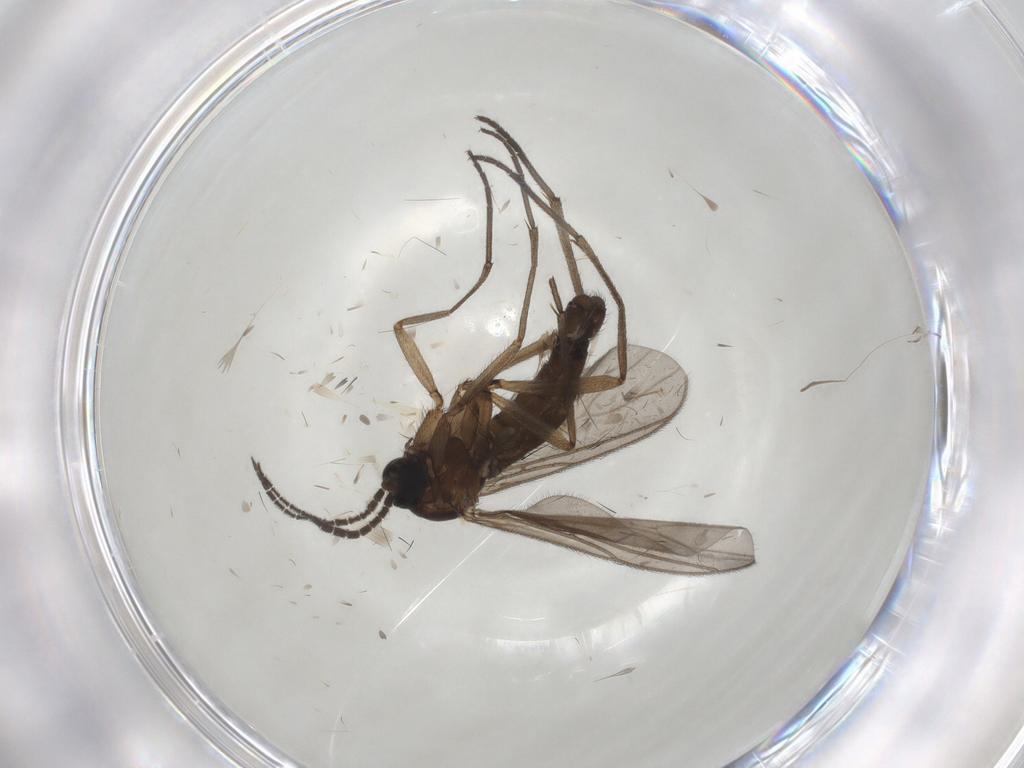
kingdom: Animalia
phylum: Arthropoda
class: Insecta
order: Diptera
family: Sciaridae
